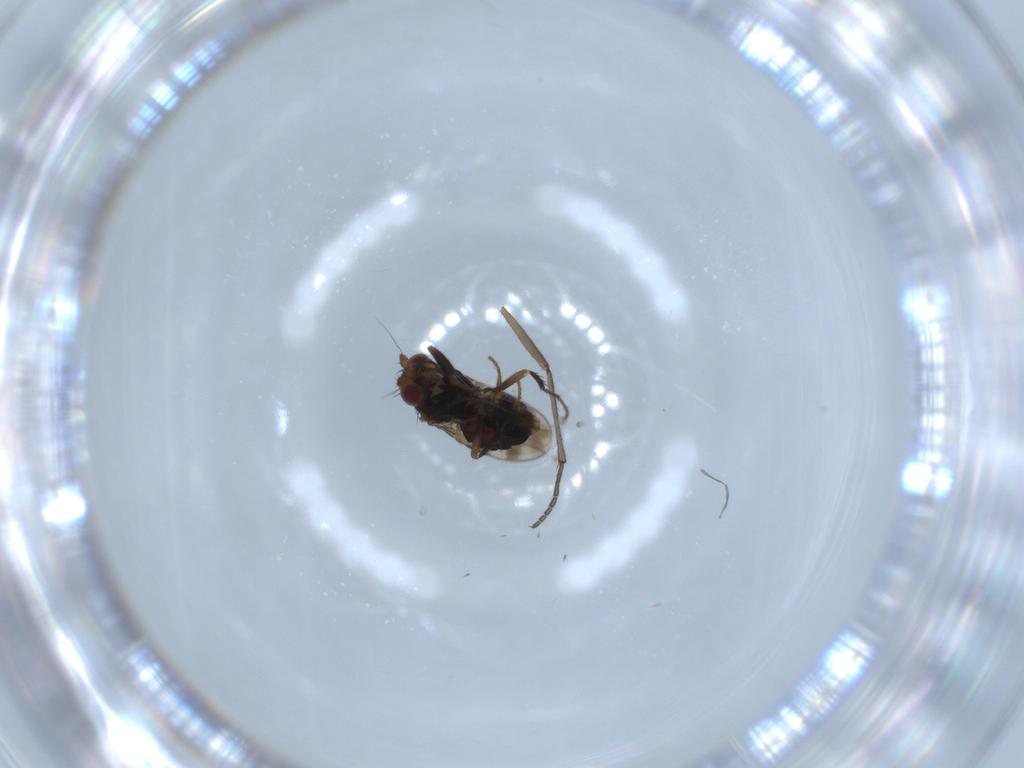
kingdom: Animalia
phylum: Arthropoda
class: Insecta
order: Diptera
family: Sphaeroceridae
